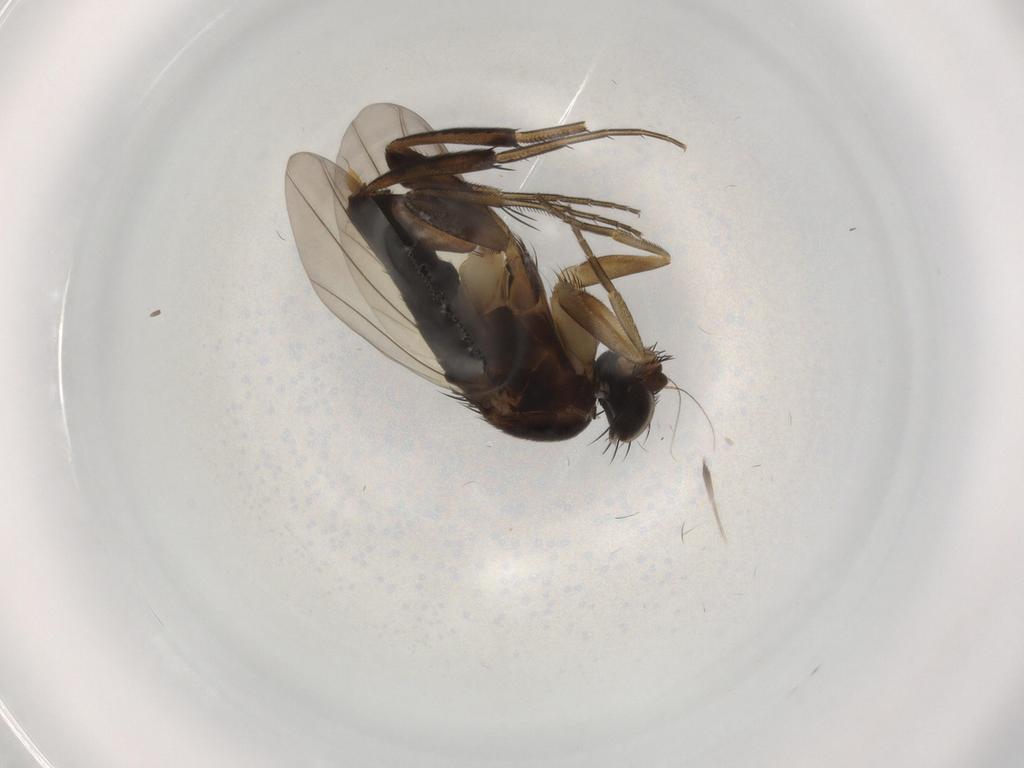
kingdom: Animalia
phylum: Arthropoda
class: Insecta
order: Diptera
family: Phoridae
